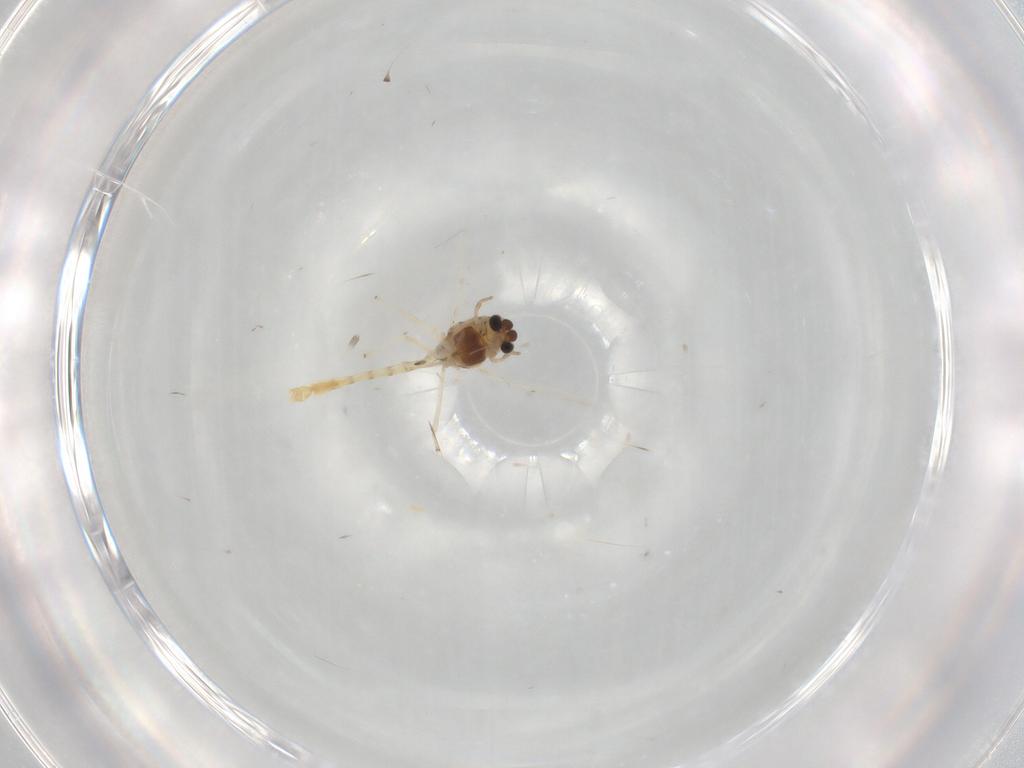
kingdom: Animalia
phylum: Arthropoda
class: Insecta
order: Diptera
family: Chironomidae
